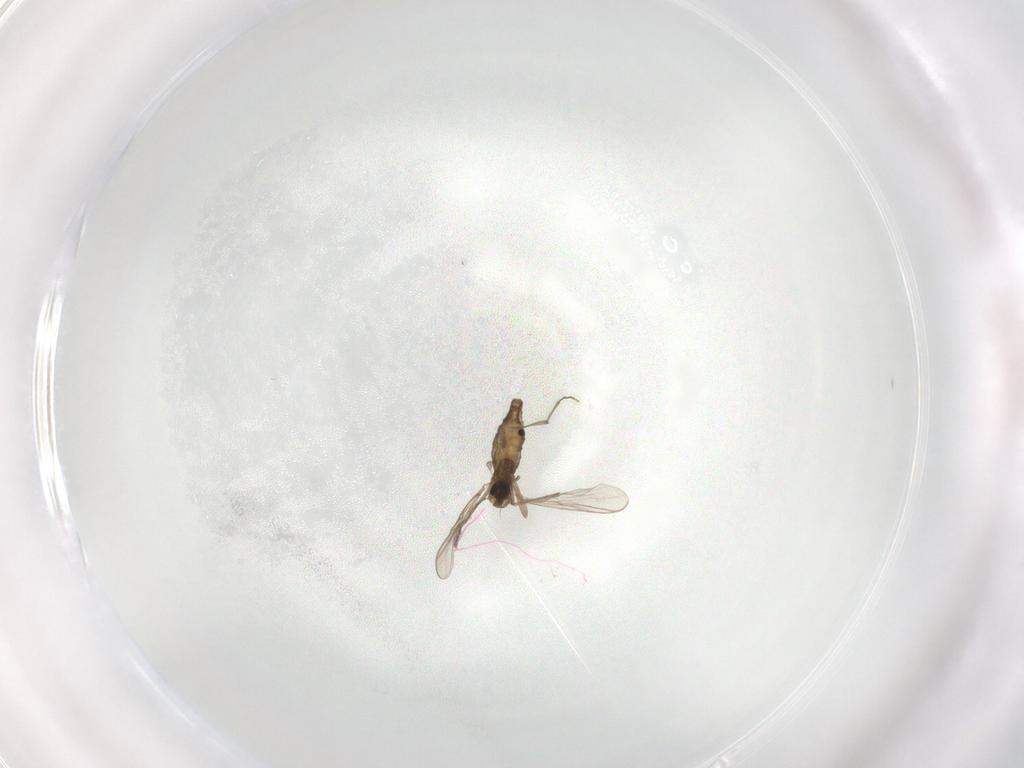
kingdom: Animalia
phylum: Arthropoda
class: Insecta
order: Diptera
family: Chironomidae
